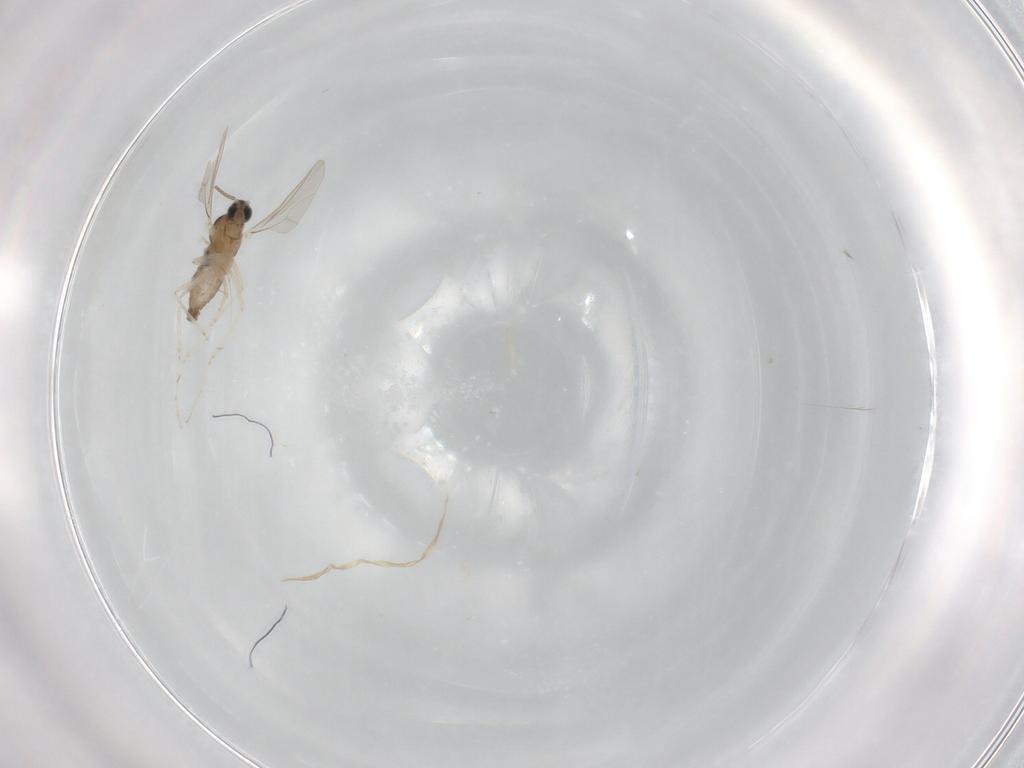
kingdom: Animalia
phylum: Arthropoda
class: Insecta
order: Diptera
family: Cecidomyiidae
